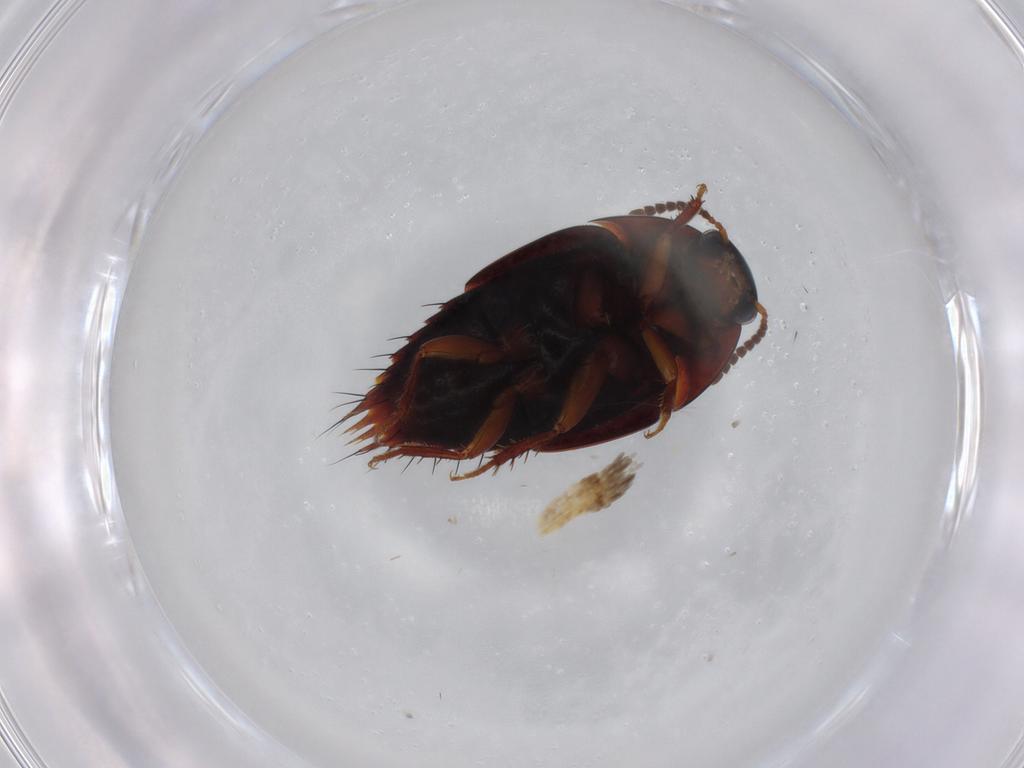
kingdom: Animalia
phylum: Arthropoda
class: Insecta
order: Coleoptera
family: Staphylinidae
